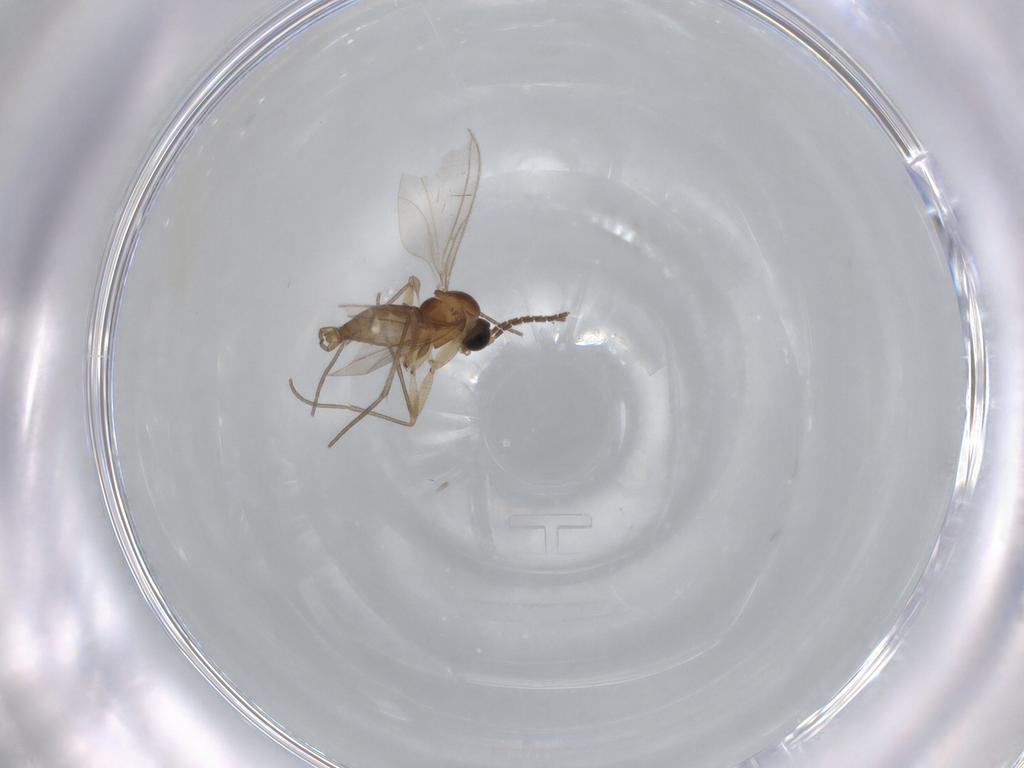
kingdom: Animalia
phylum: Arthropoda
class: Insecta
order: Diptera
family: Sciaridae
